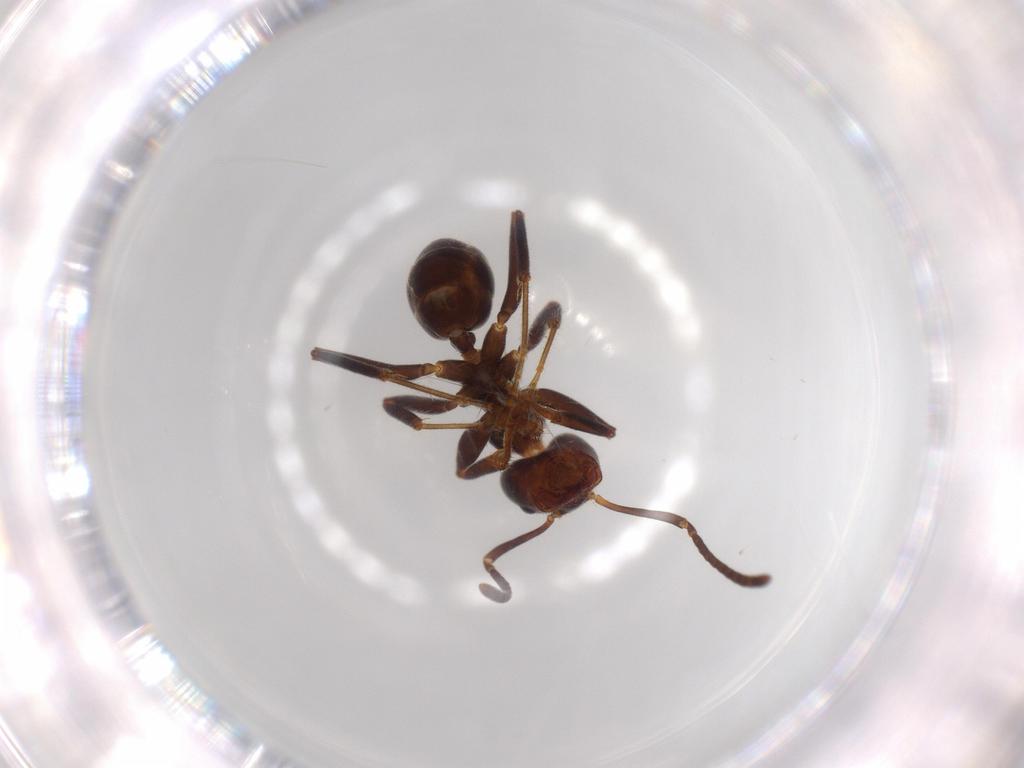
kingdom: Animalia
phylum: Arthropoda
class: Insecta
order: Hymenoptera
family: Formicidae
